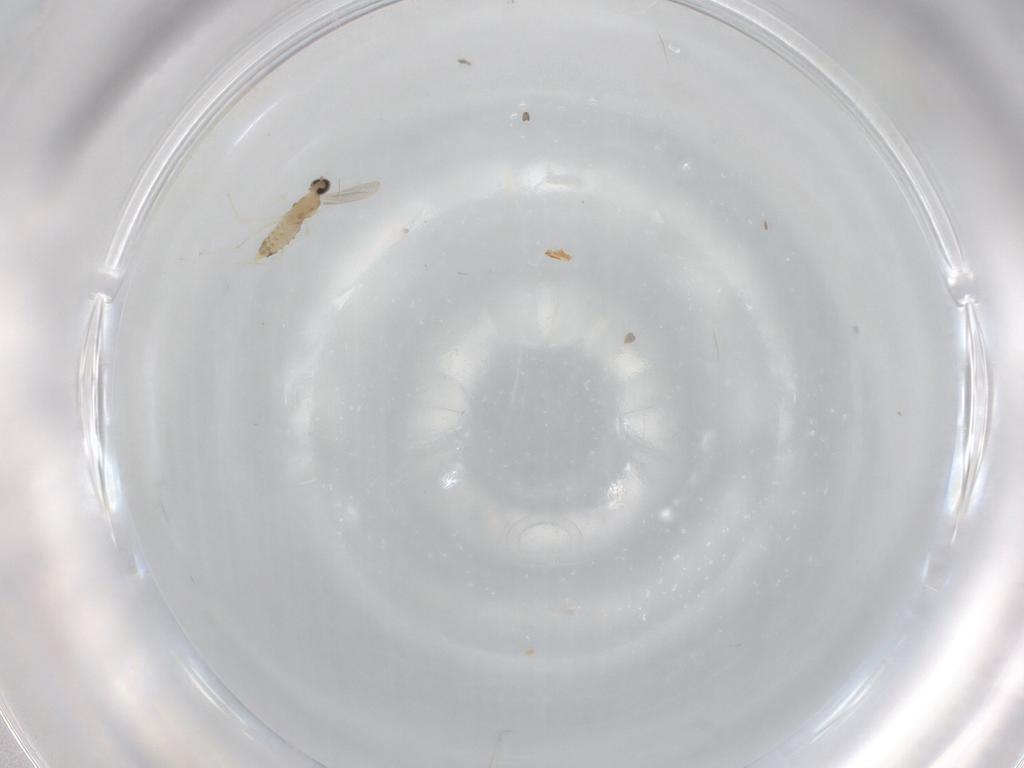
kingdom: Animalia
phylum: Arthropoda
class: Insecta
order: Diptera
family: Cecidomyiidae
